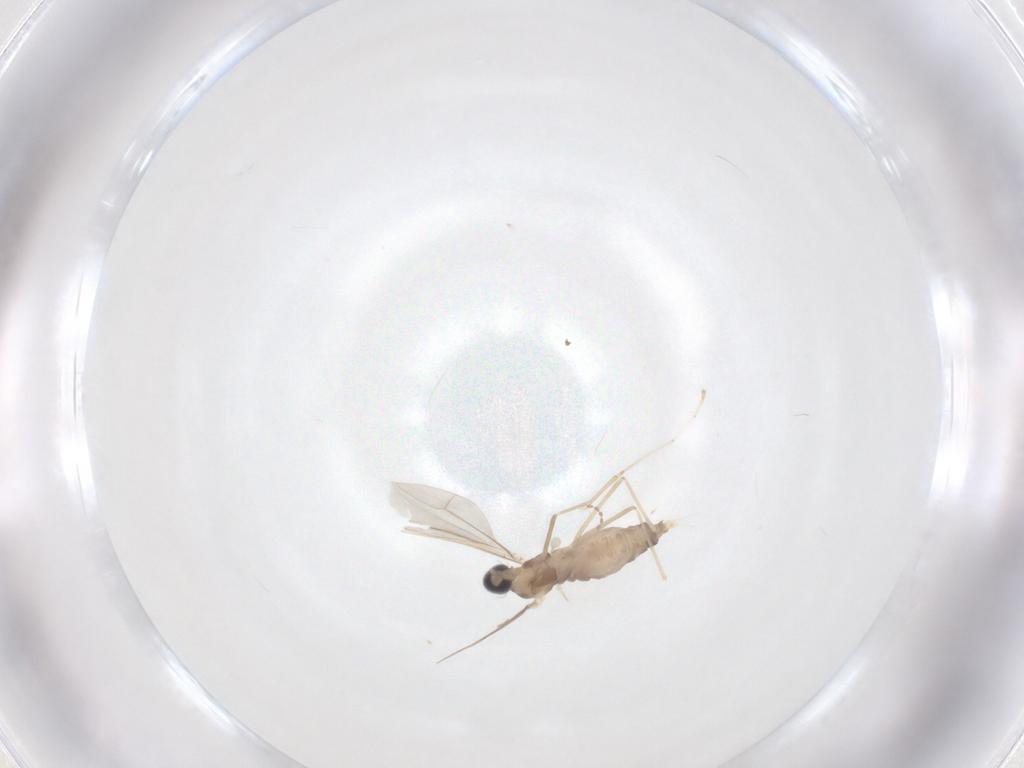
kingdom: Animalia
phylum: Arthropoda
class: Insecta
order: Diptera
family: Cecidomyiidae
